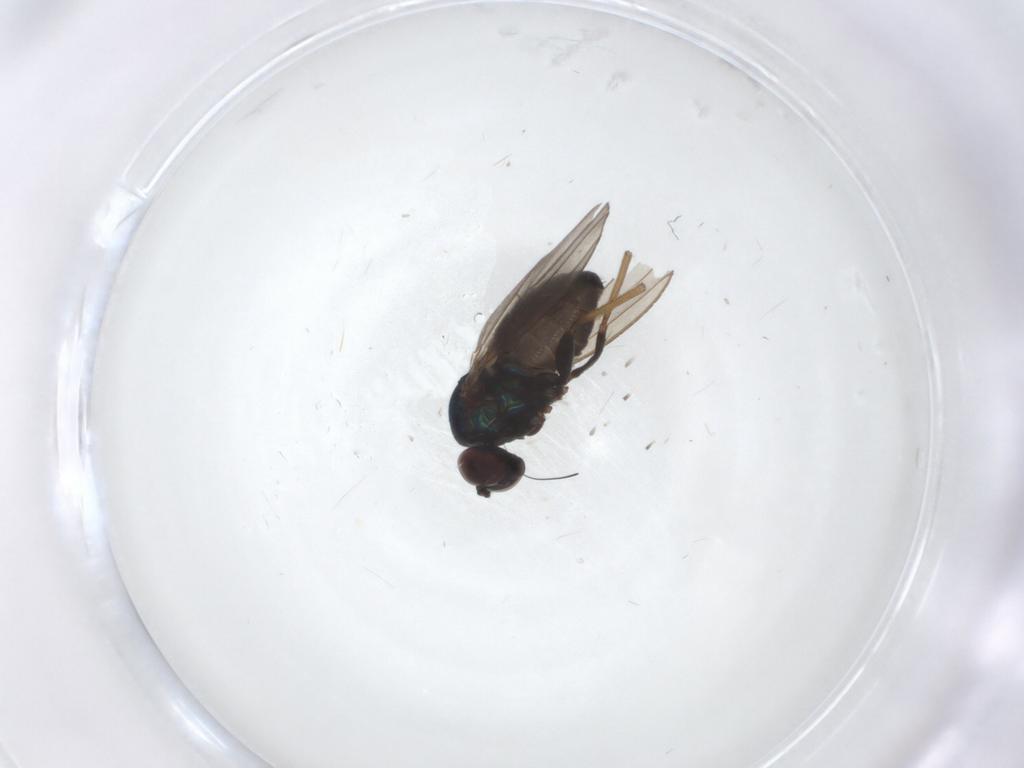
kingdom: Animalia
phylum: Arthropoda
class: Insecta
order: Diptera
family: Dolichopodidae
